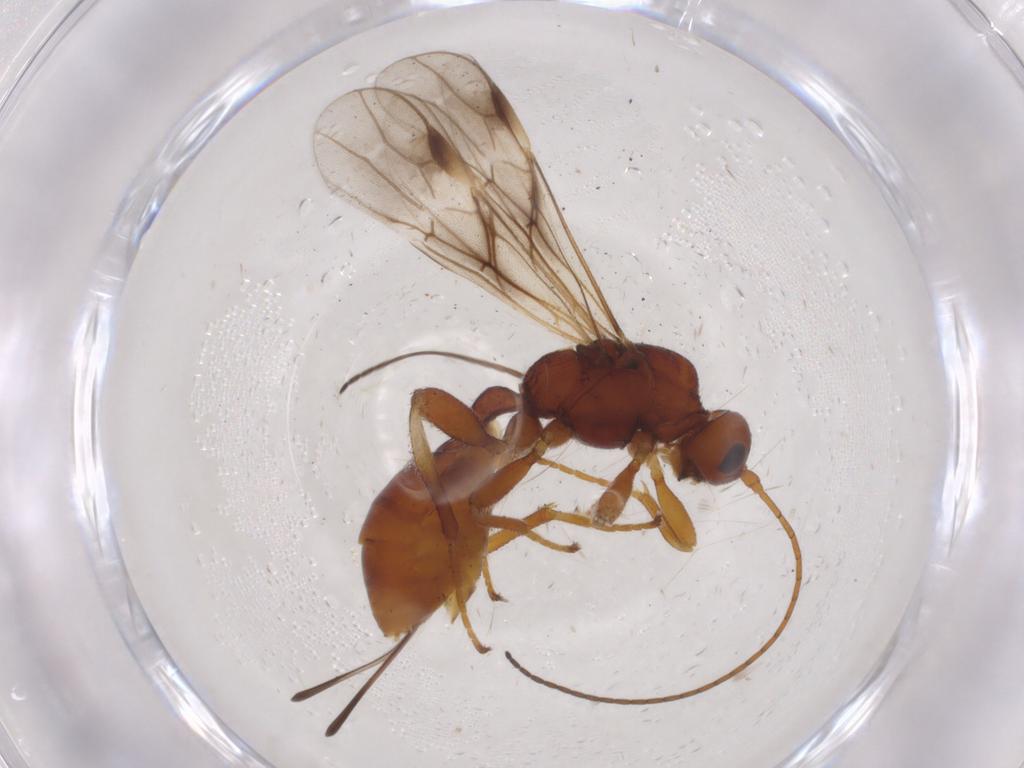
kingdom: Animalia
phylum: Arthropoda
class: Insecta
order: Hymenoptera
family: Braconidae
